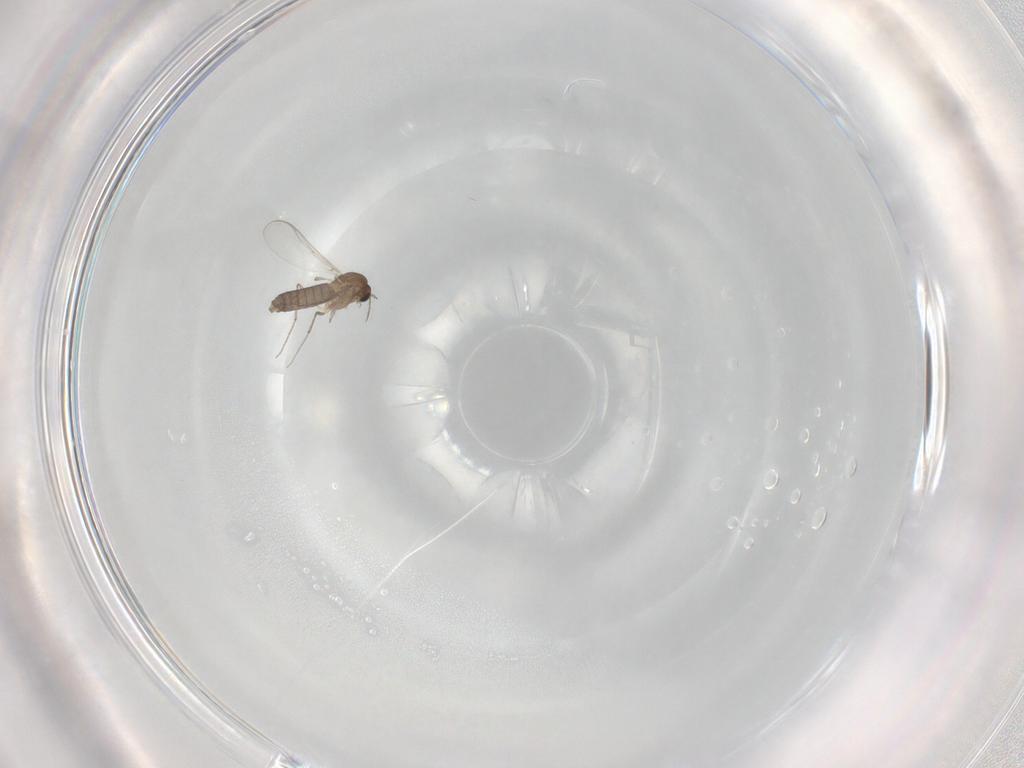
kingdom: Animalia
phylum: Arthropoda
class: Insecta
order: Diptera
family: Chironomidae
